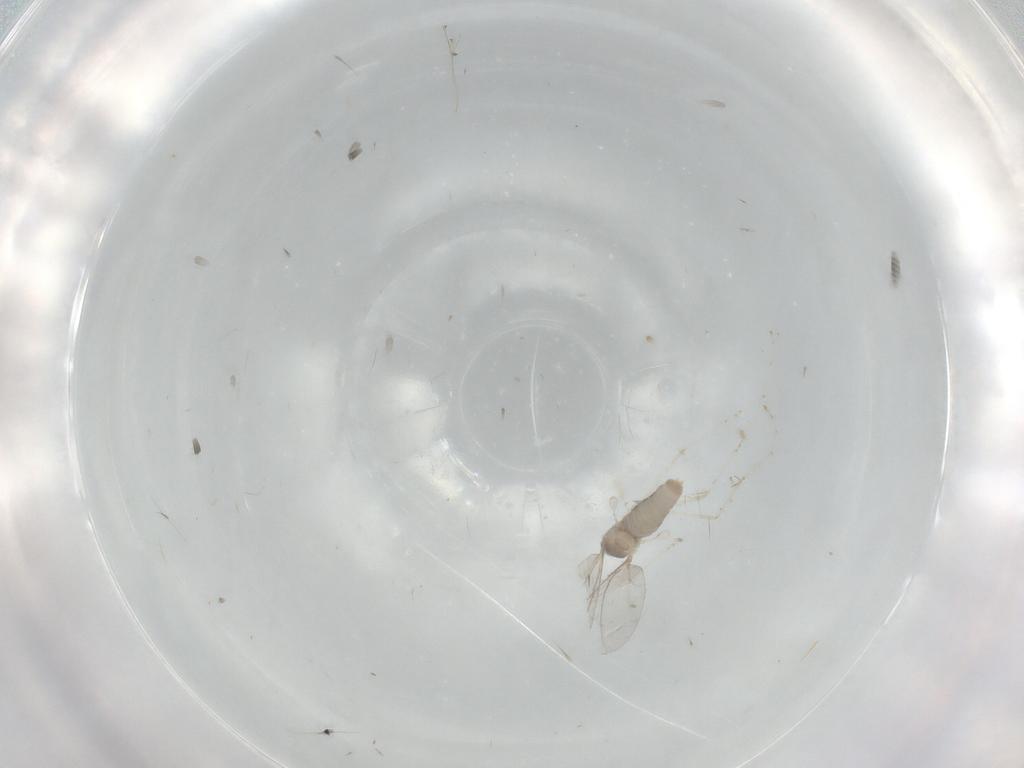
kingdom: Animalia
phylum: Arthropoda
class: Insecta
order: Diptera
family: Cecidomyiidae
